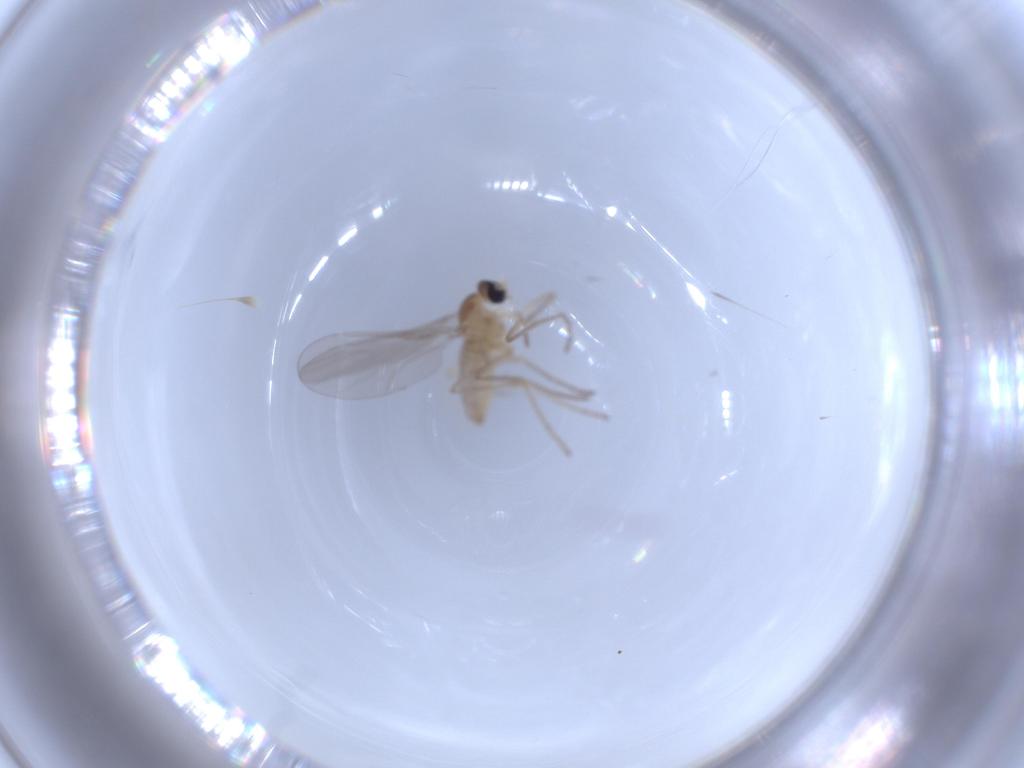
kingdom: Animalia
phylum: Arthropoda
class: Insecta
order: Diptera
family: Cecidomyiidae
